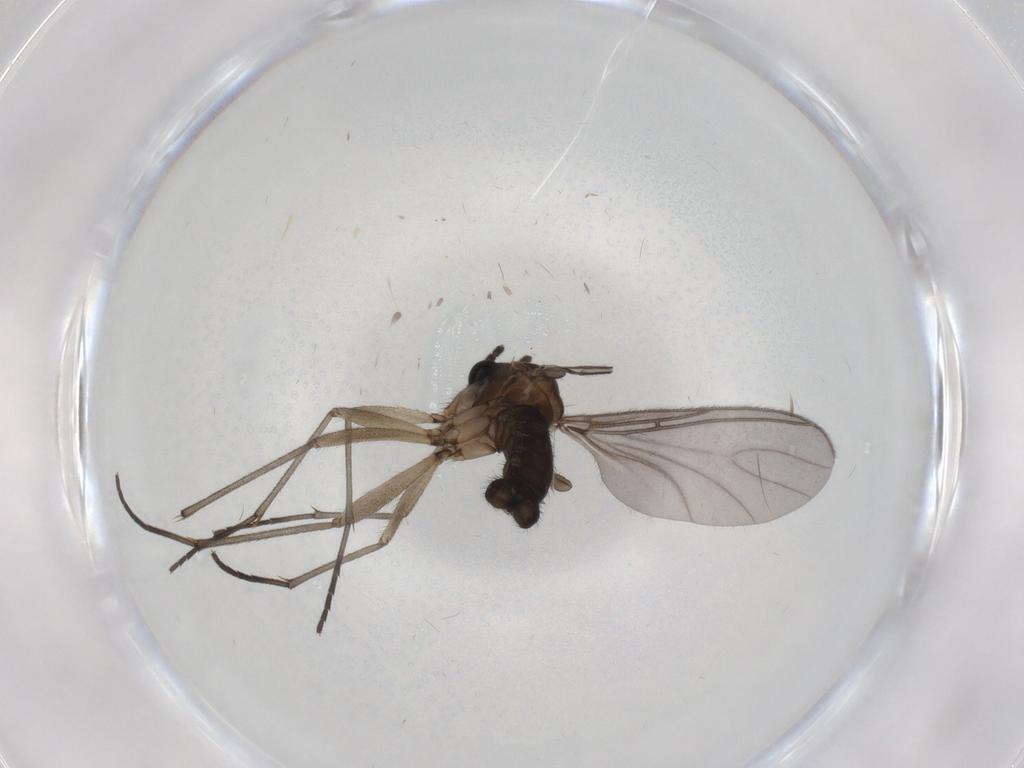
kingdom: Animalia
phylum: Arthropoda
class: Insecta
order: Diptera
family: Sciaridae
